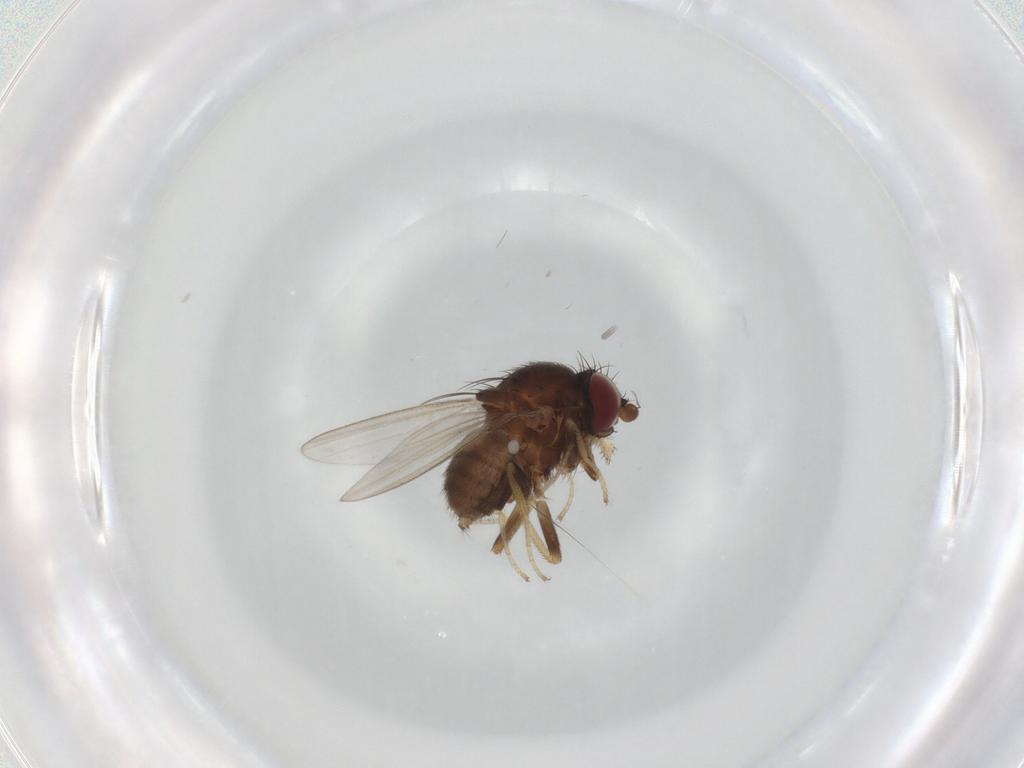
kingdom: Animalia
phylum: Arthropoda
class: Insecta
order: Diptera
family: Milichiidae
